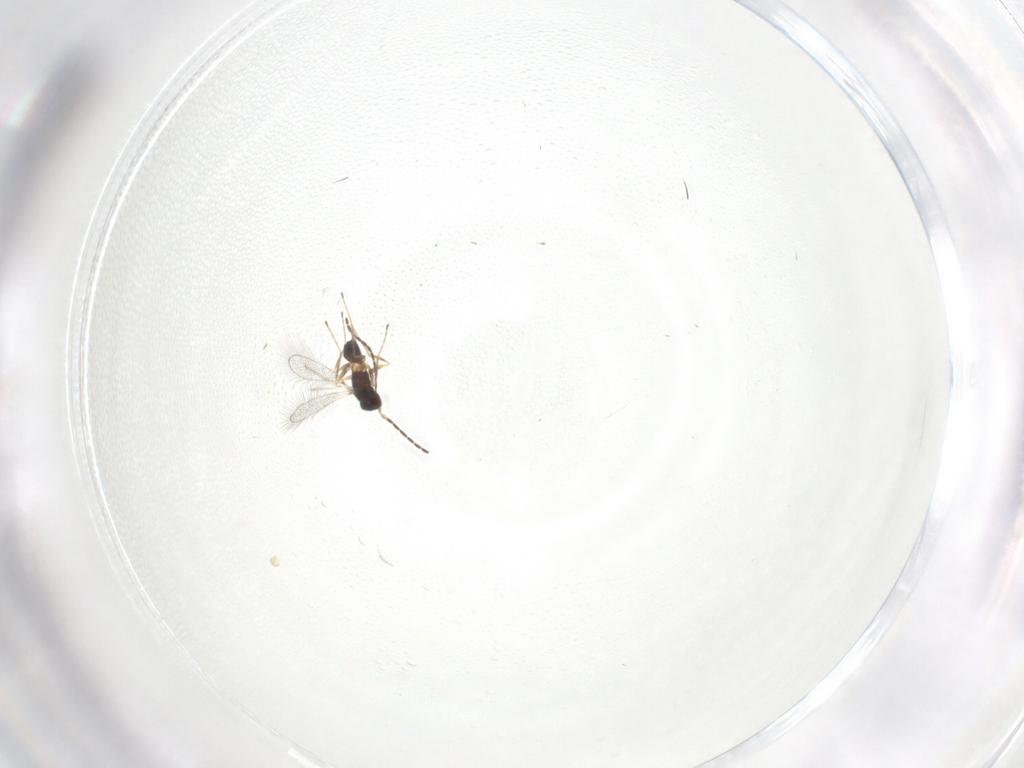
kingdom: Animalia
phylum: Arthropoda
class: Insecta
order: Hymenoptera
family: Mymaridae
